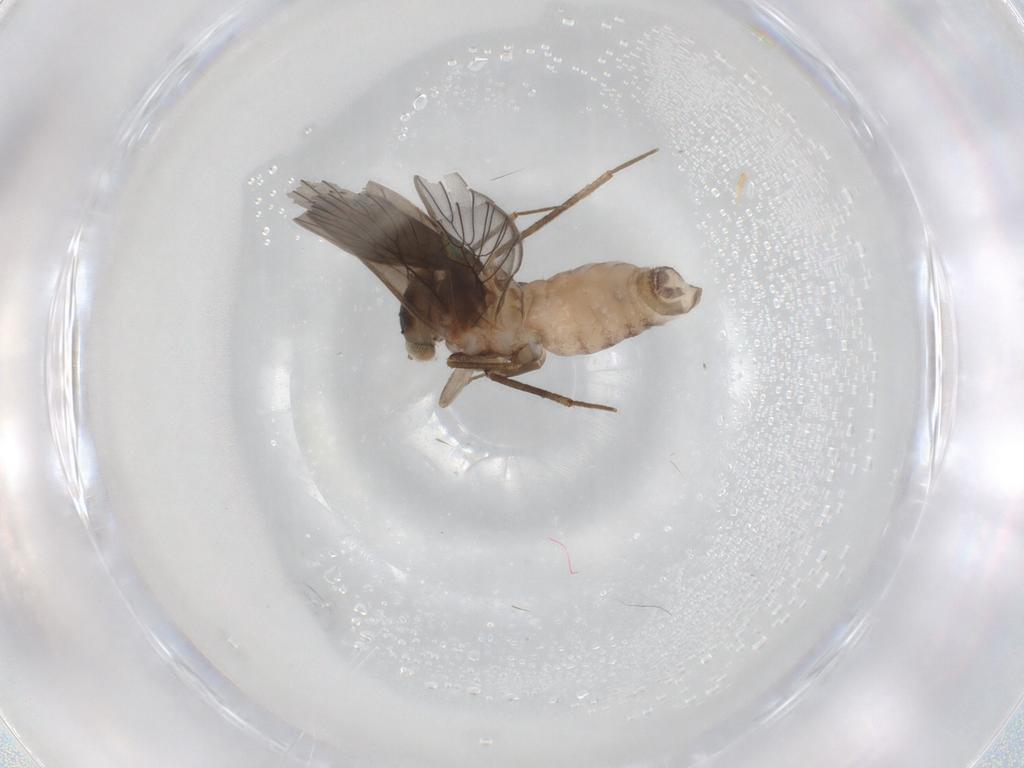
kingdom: Animalia
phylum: Arthropoda
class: Insecta
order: Psocodea
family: Lepidopsocidae
